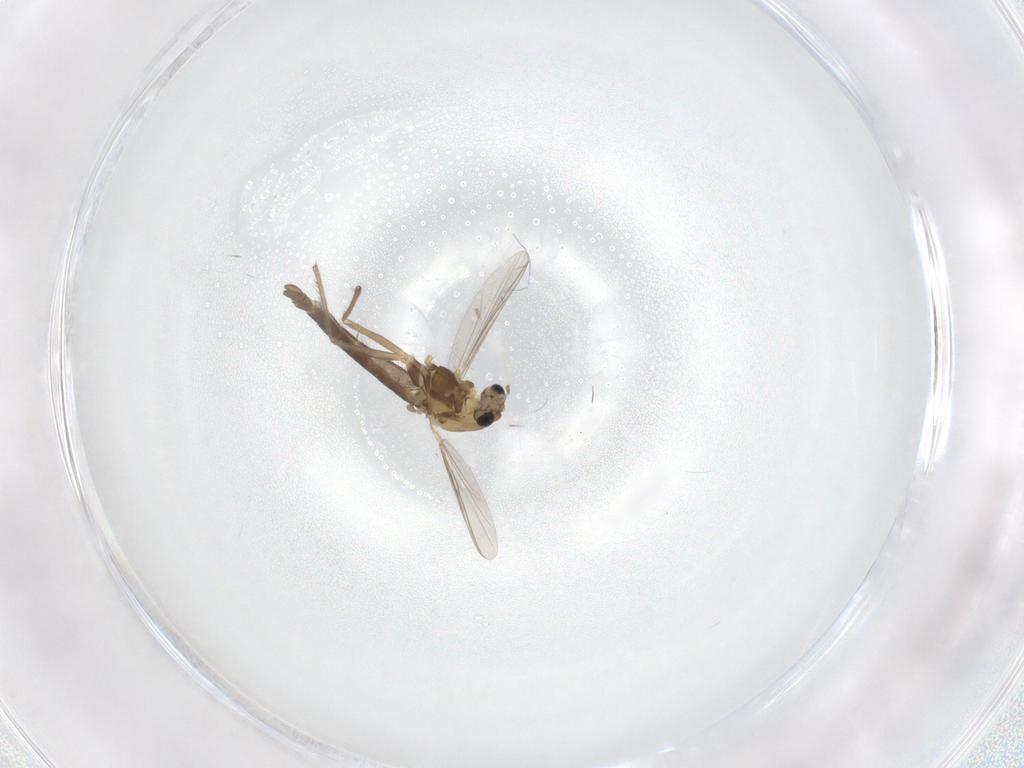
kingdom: Animalia
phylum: Arthropoda
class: Insecta
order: Diptera
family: Chironomidae
